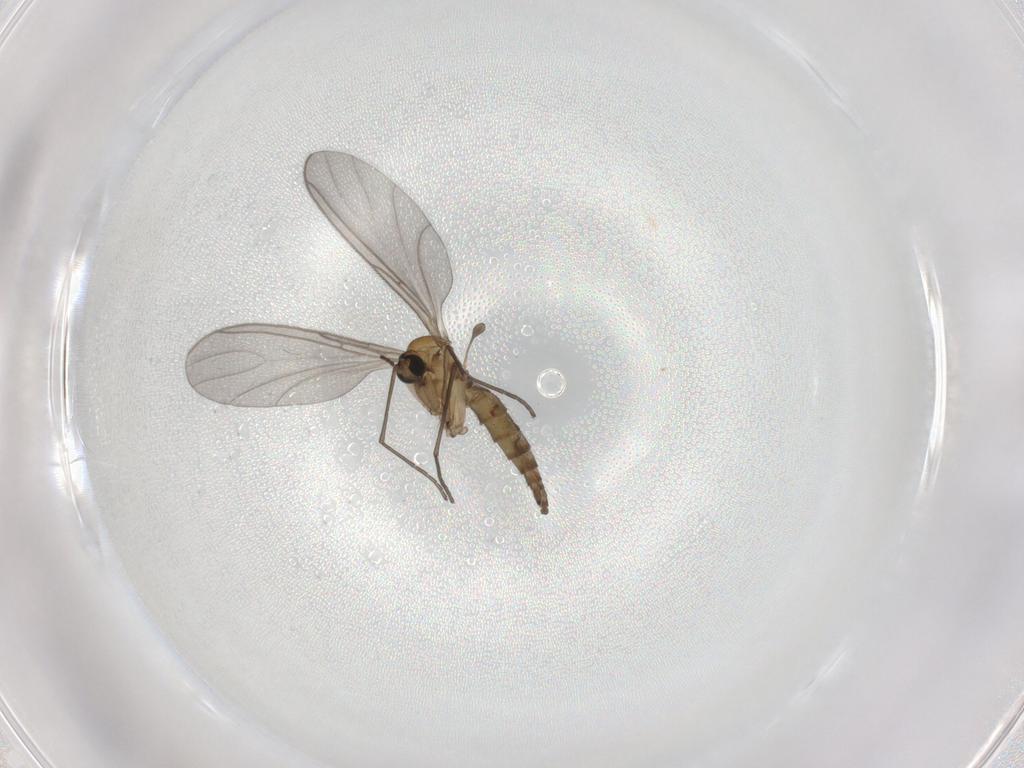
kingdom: Animalia
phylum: Arthropoda
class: Insecta
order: Diptera
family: Sciaridae
